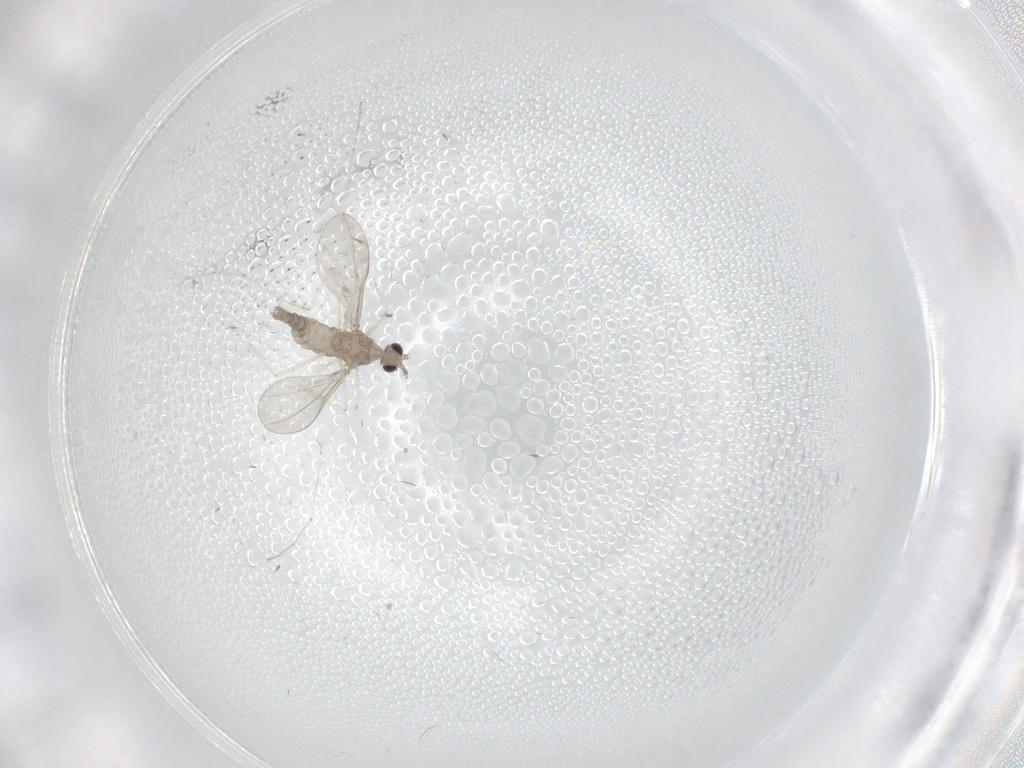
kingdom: Animalia
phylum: Arthropoda
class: Insecta
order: Diptera
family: Cecidomyiidae
